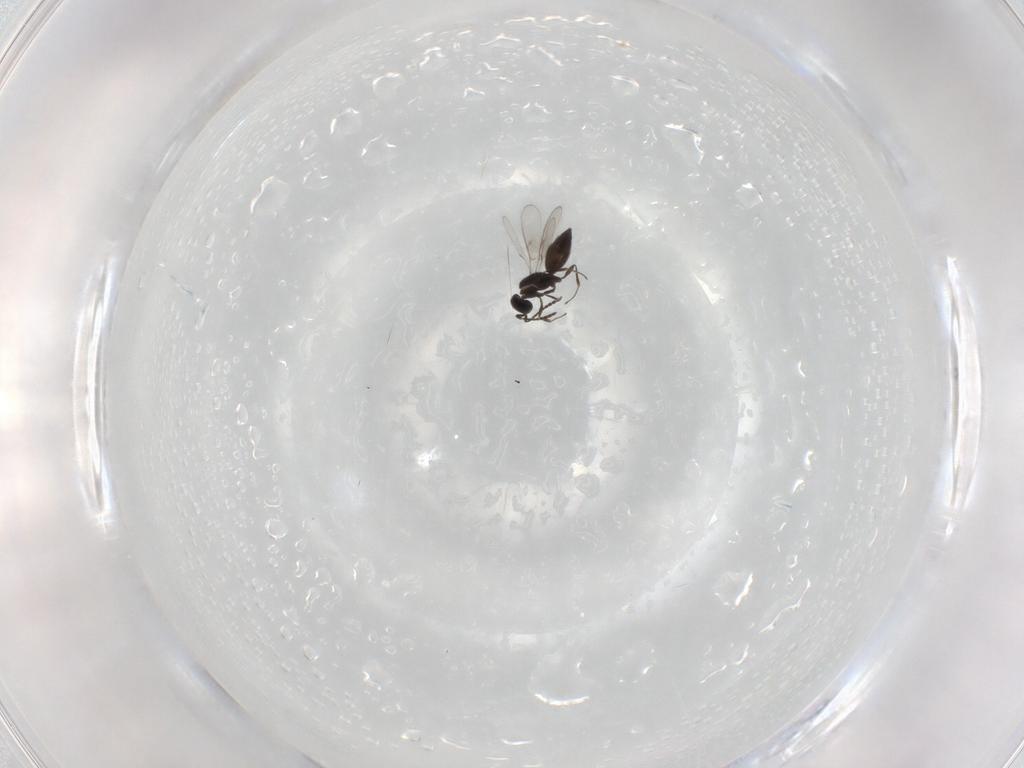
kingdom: Animalia
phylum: Arthropoda
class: Insecta
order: Hymenoptera
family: Scelionidae
